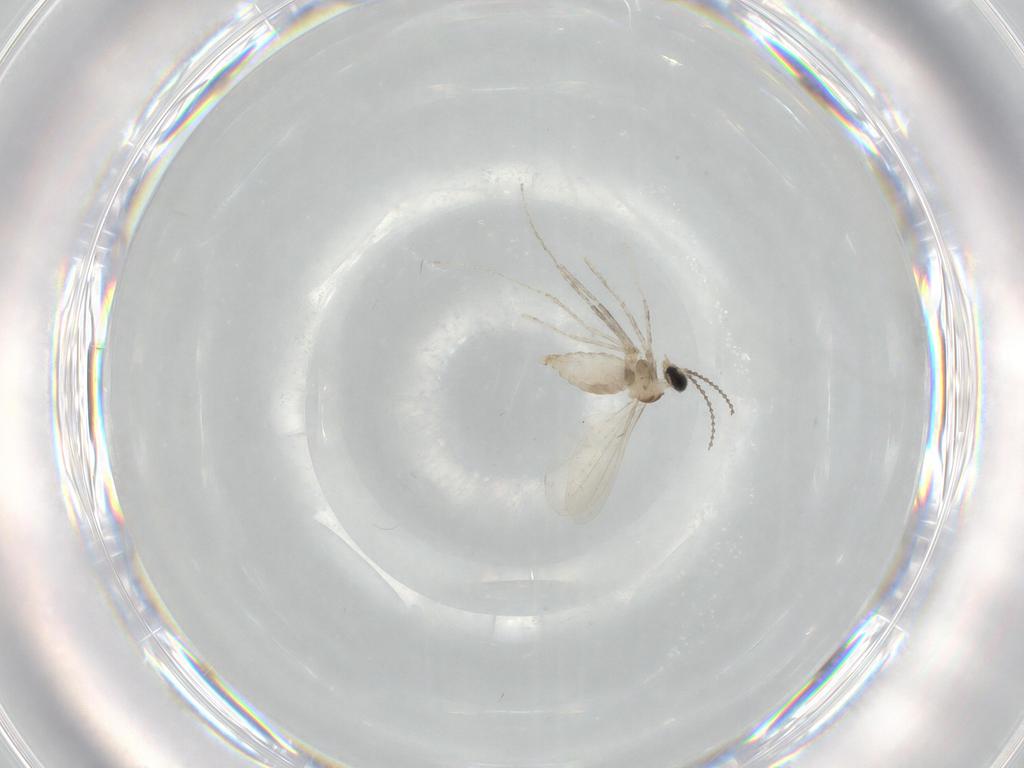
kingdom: Animalia
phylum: Arthropoda
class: Insecta
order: Diptera
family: Cecidomyiidae
